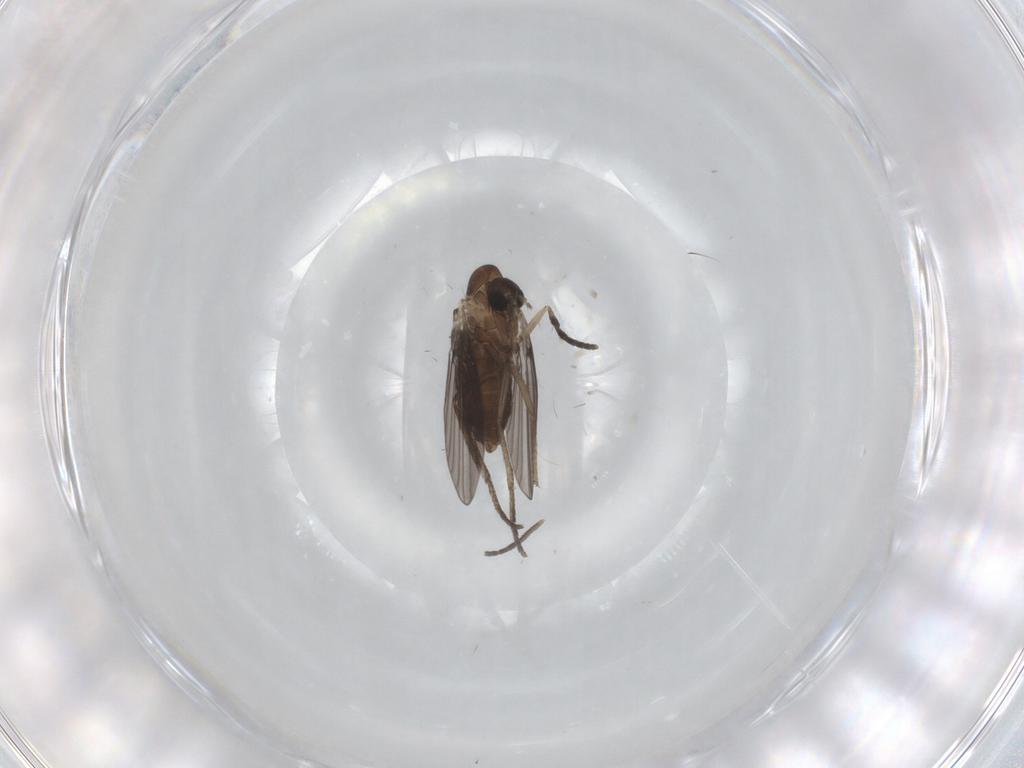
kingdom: Animalia
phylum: Arthropoda
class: Insecta
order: Diptera
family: Psychodidae
